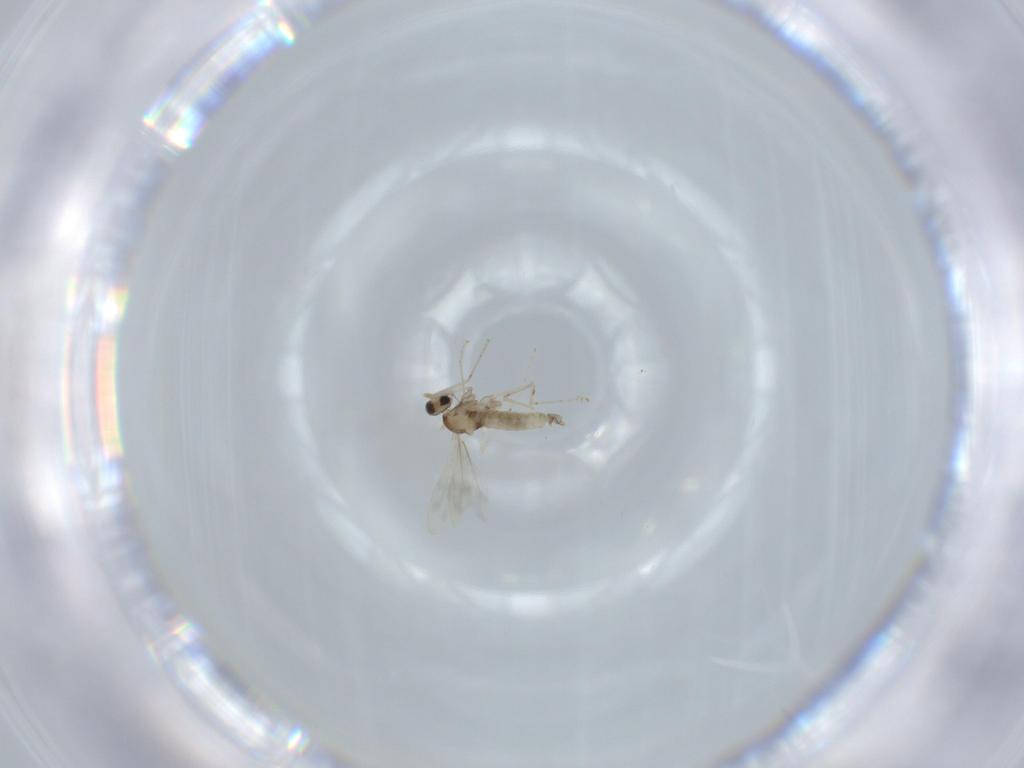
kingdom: Animalia
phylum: Arthropoda
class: Insecta
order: Diptera
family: Cecidomyiidae
